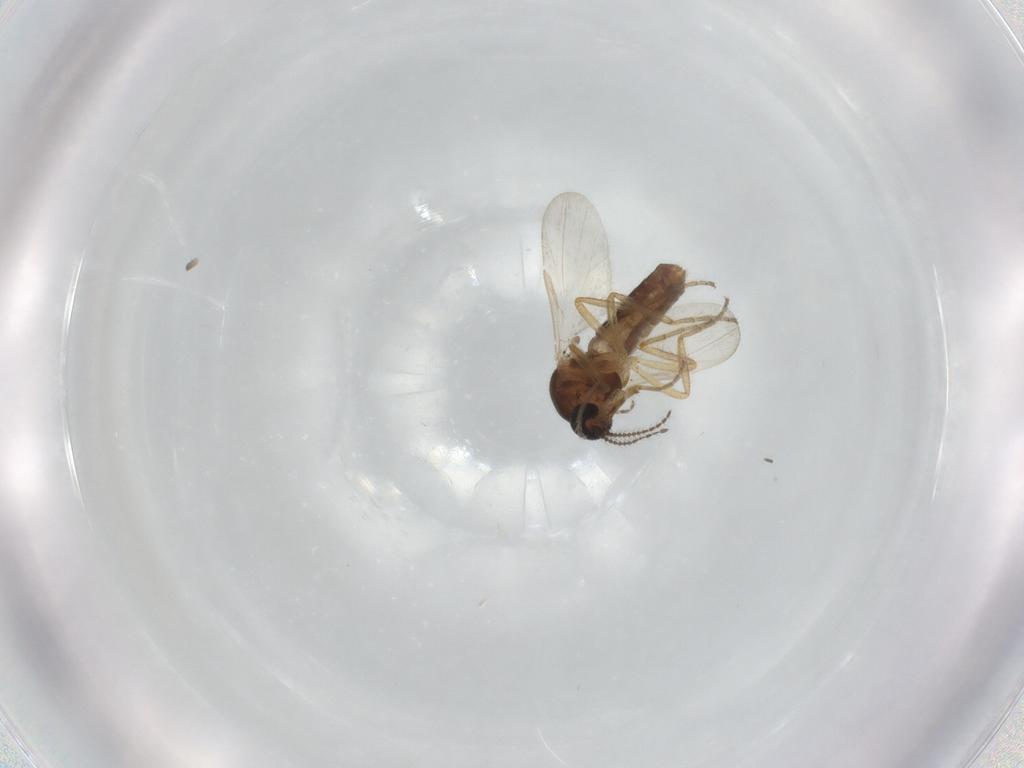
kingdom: Animalia
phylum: Arthropoda
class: Insecta
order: Diptera
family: Ceratopogonidae
